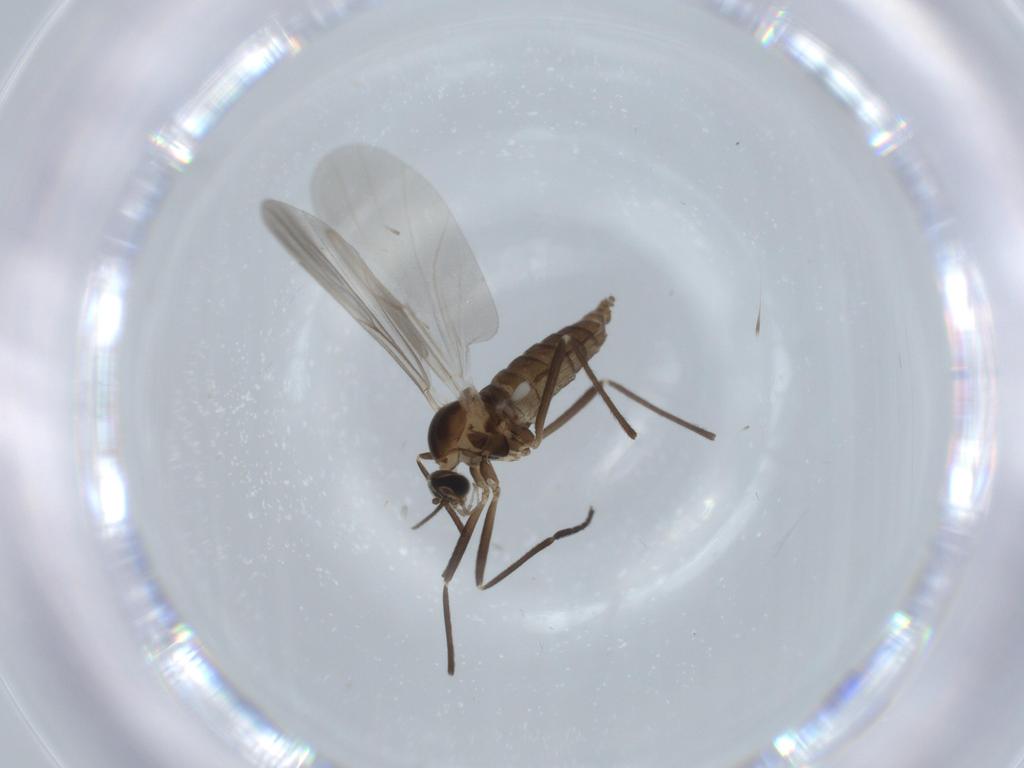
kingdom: Animalia
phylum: Arthropoda
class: Insecta
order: Diptera
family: Cecidomyiidae
